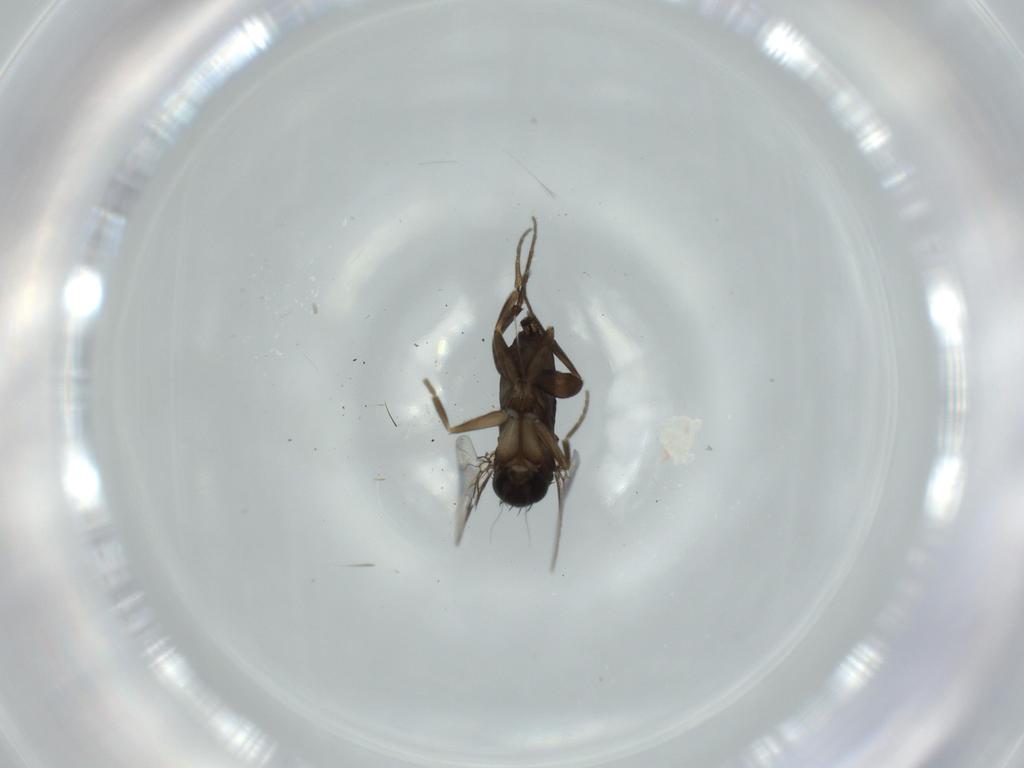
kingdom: Animalia
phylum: Arthropoda
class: Insecta
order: Diptera
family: Phoridae
